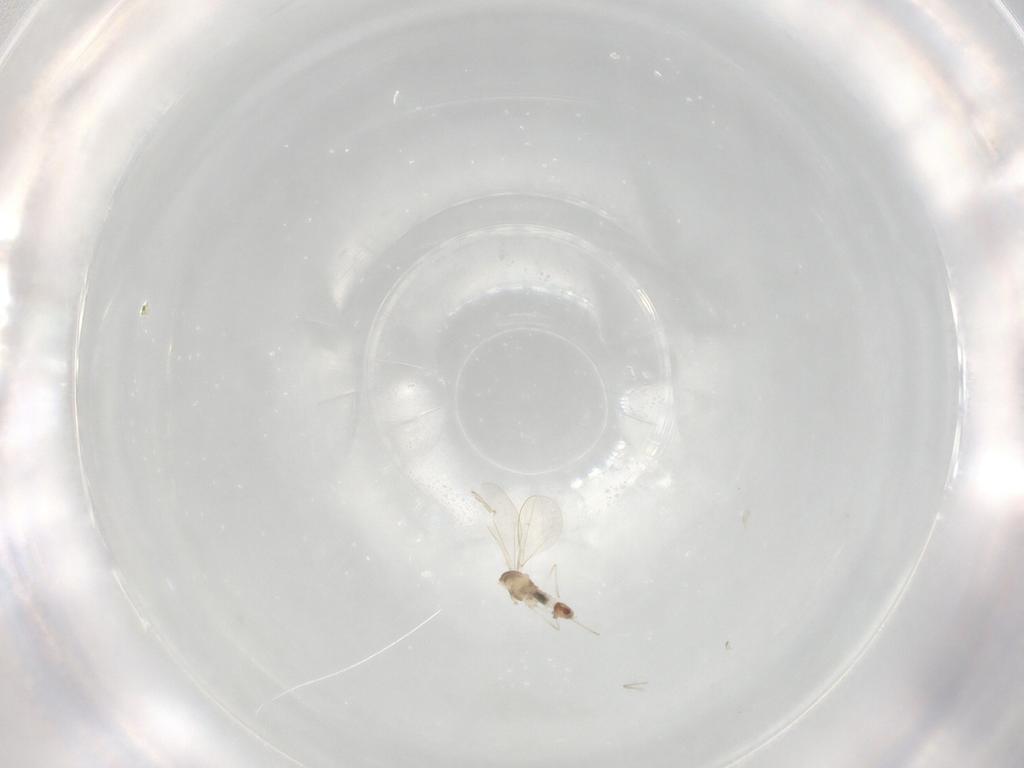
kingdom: Animalia
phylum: Arthropoda
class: Insecta
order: Diptera
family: Cecidomyiidae
